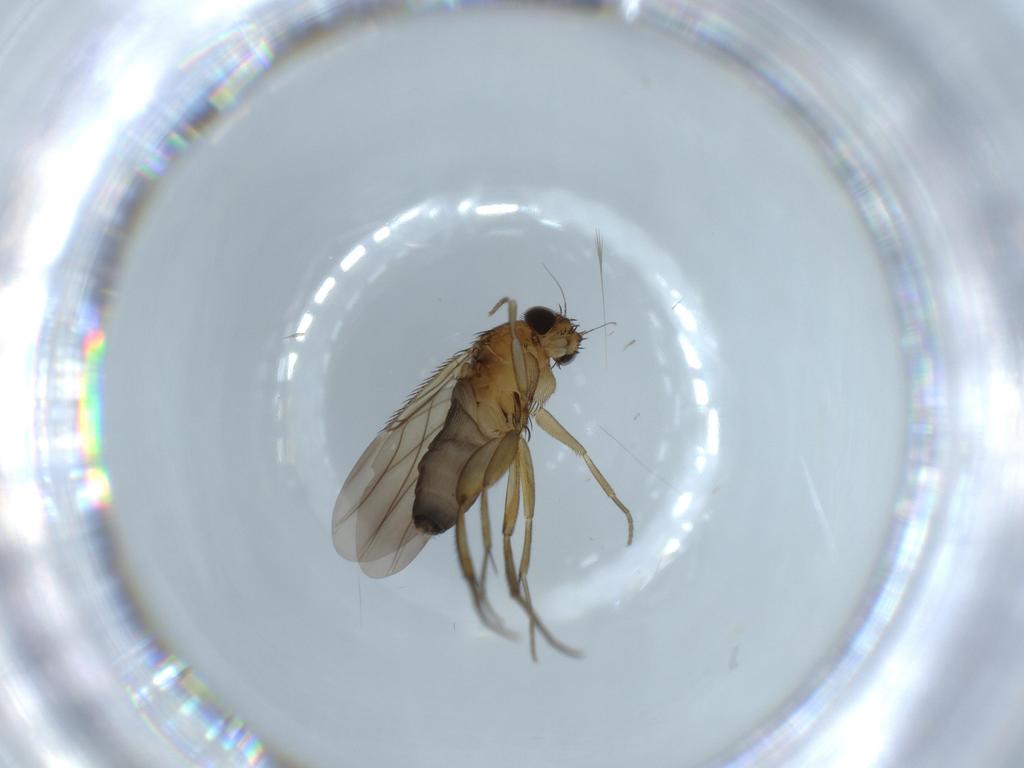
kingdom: Animalia
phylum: Arthropoda
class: Insecta
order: Diptera
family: Phoridae
